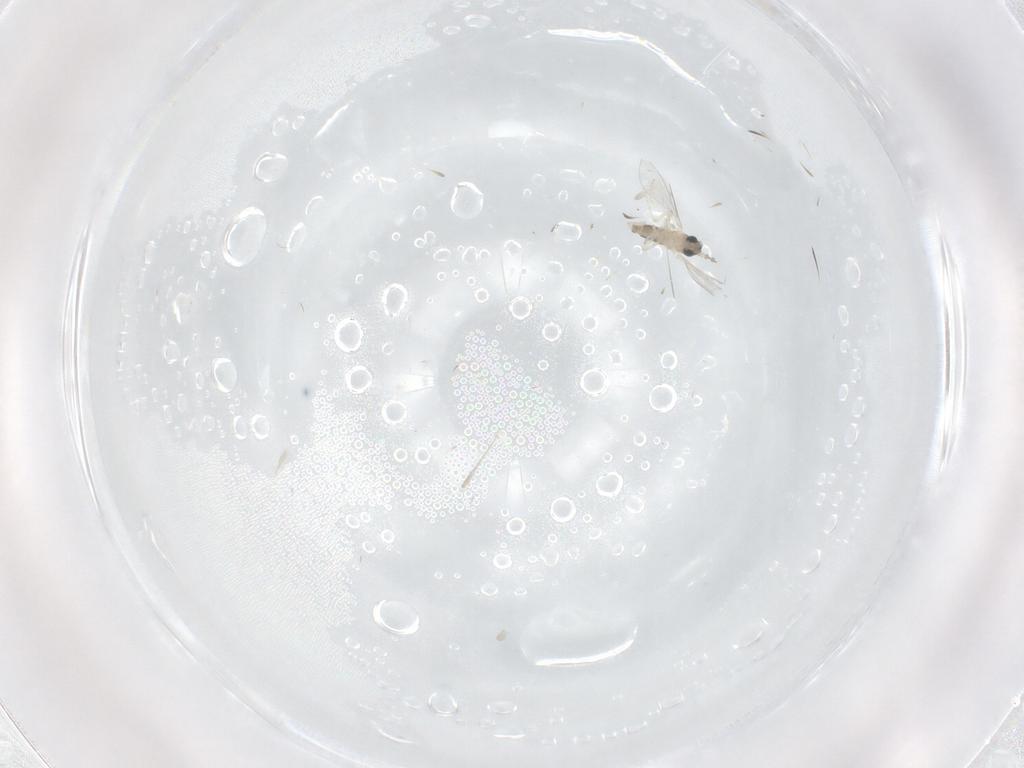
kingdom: Animalia
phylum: Arthropoda
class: Insecta
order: Diptera
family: Cecidomyiidae
